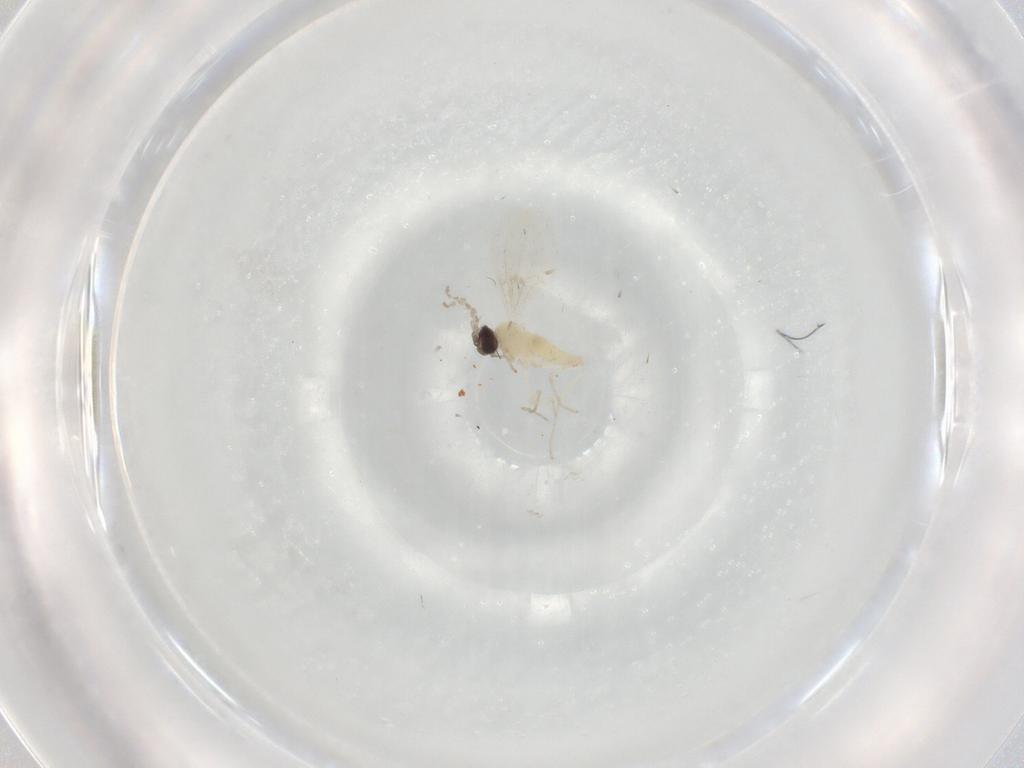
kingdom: Animalia
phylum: Arthropoda
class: Insecta
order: Diptera
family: Cecidomyiidae
